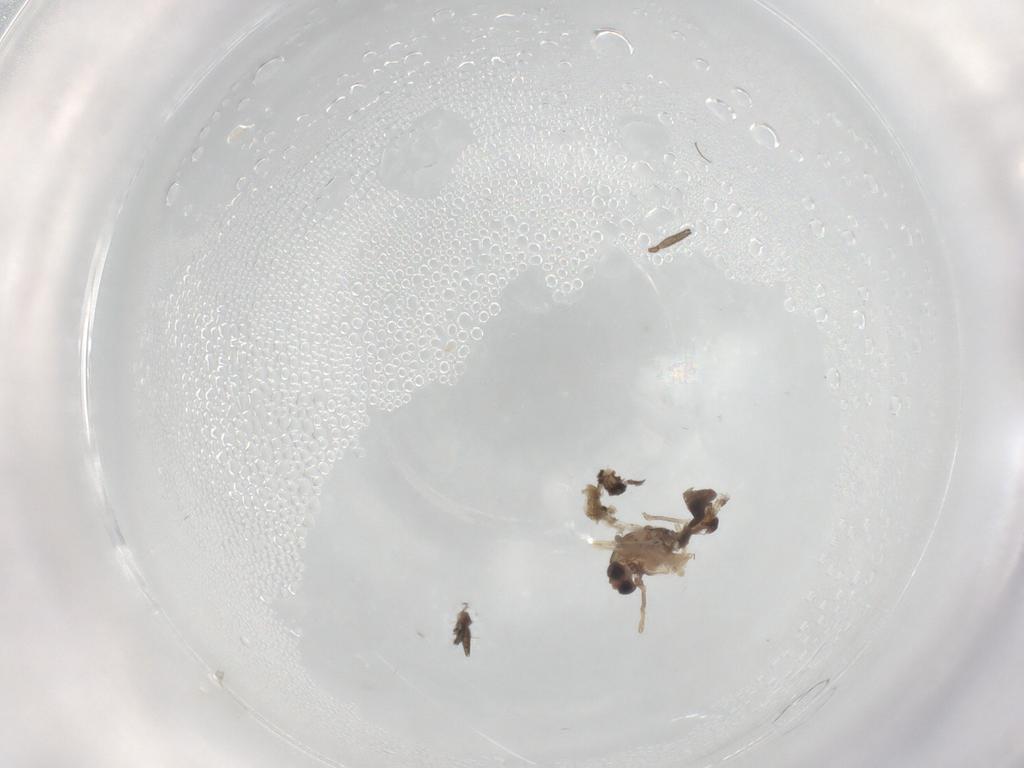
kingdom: Animalia
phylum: Arthropoda
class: Insecta
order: Diptera
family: Chironomidae
